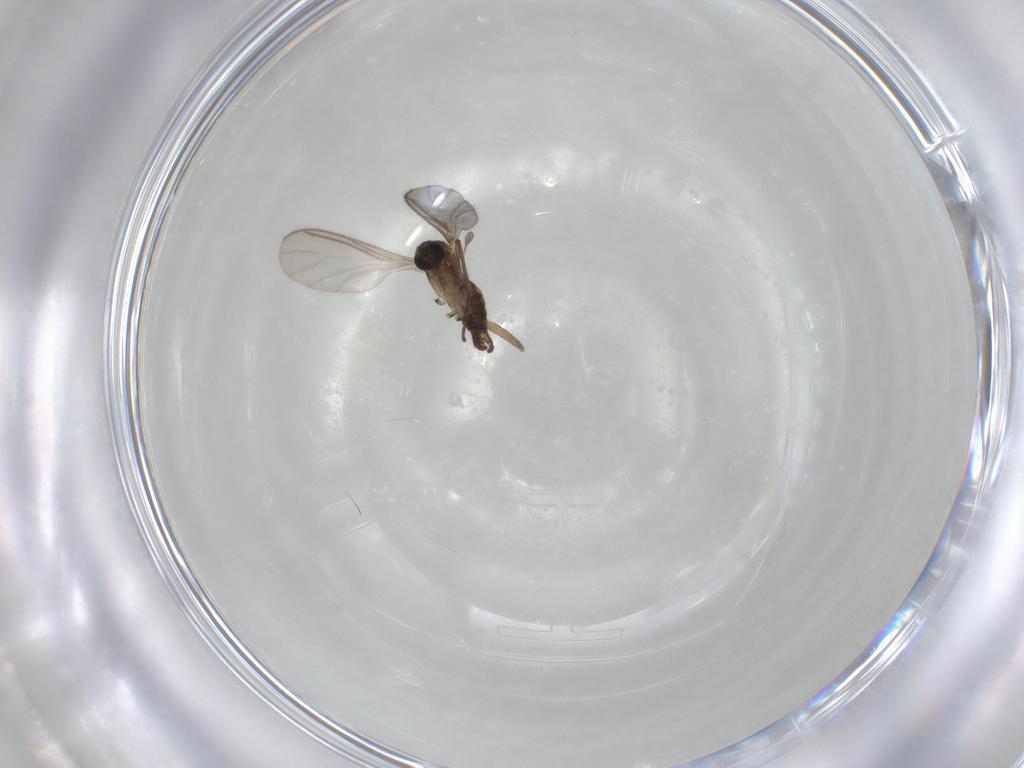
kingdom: Animalia
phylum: Arthropoda
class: Insecta
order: Diptera
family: Sciaridae
